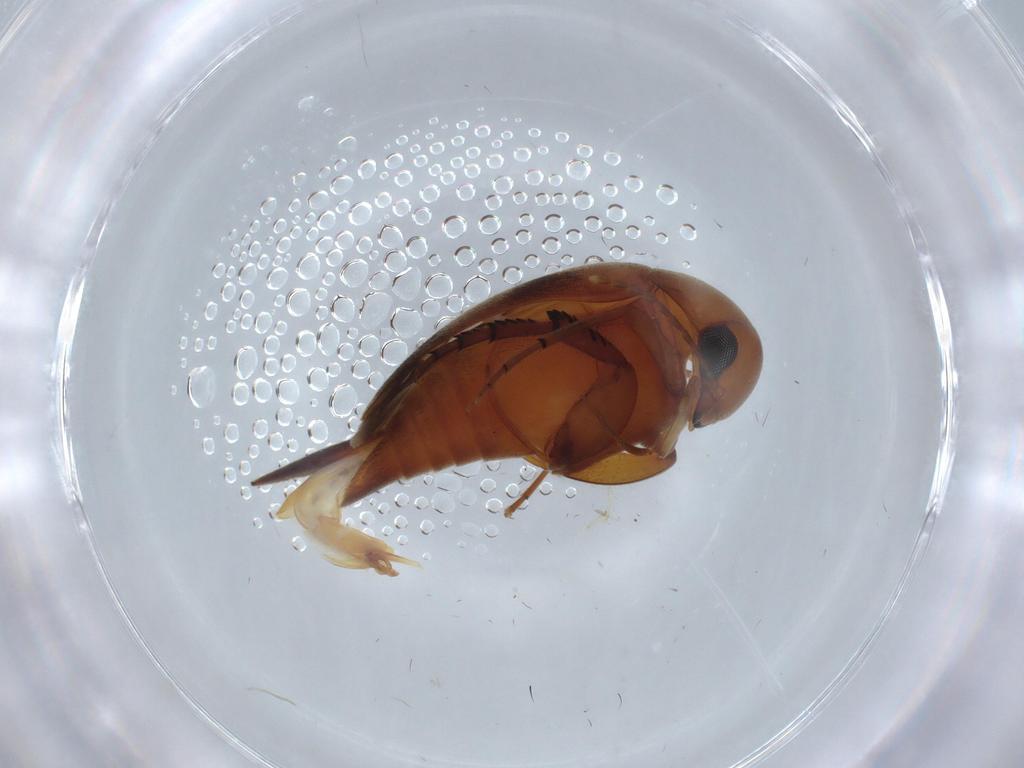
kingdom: Animalia
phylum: Arthropoda
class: Insecta
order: Coleoptera
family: Mordellidae
